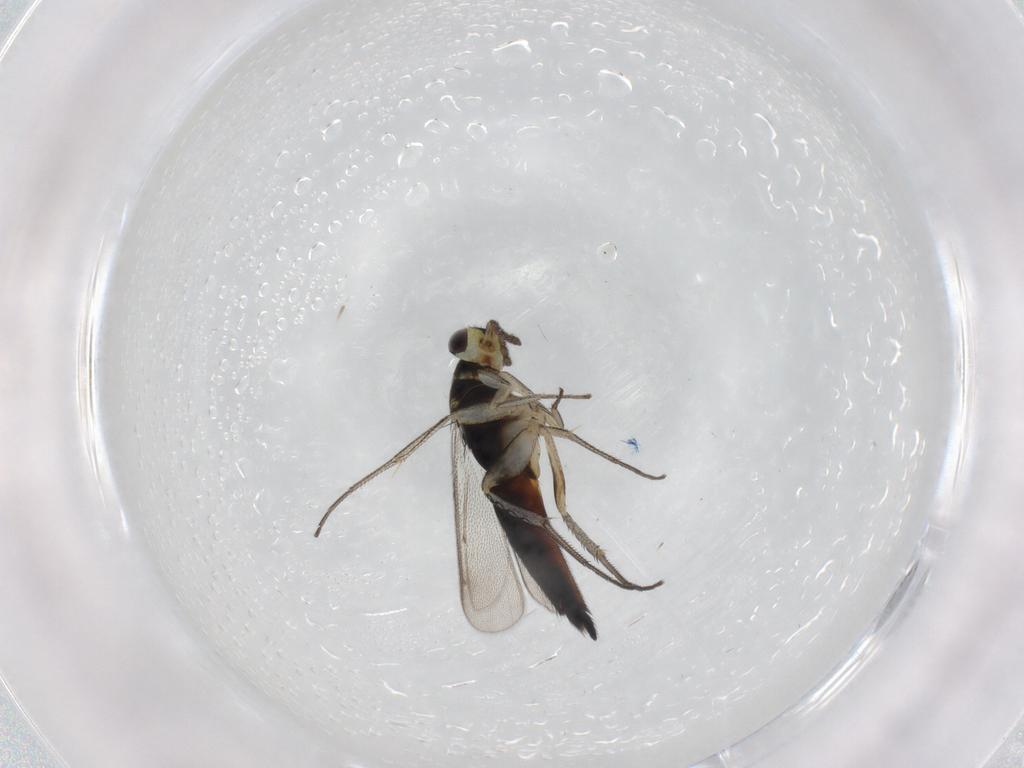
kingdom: Animalia
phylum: Arthropoda
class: Insecta
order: Hymenoptera
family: Eulophidae
